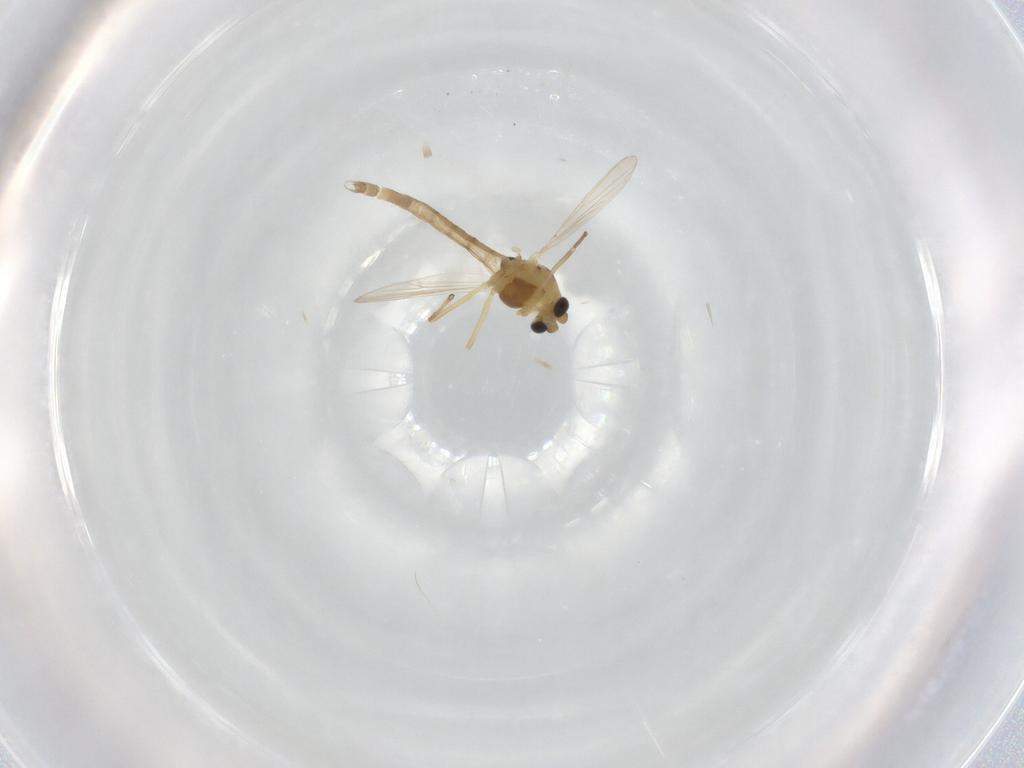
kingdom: Animalia
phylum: Arthropoda
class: Insecta
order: Diptera
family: Chironomidae
